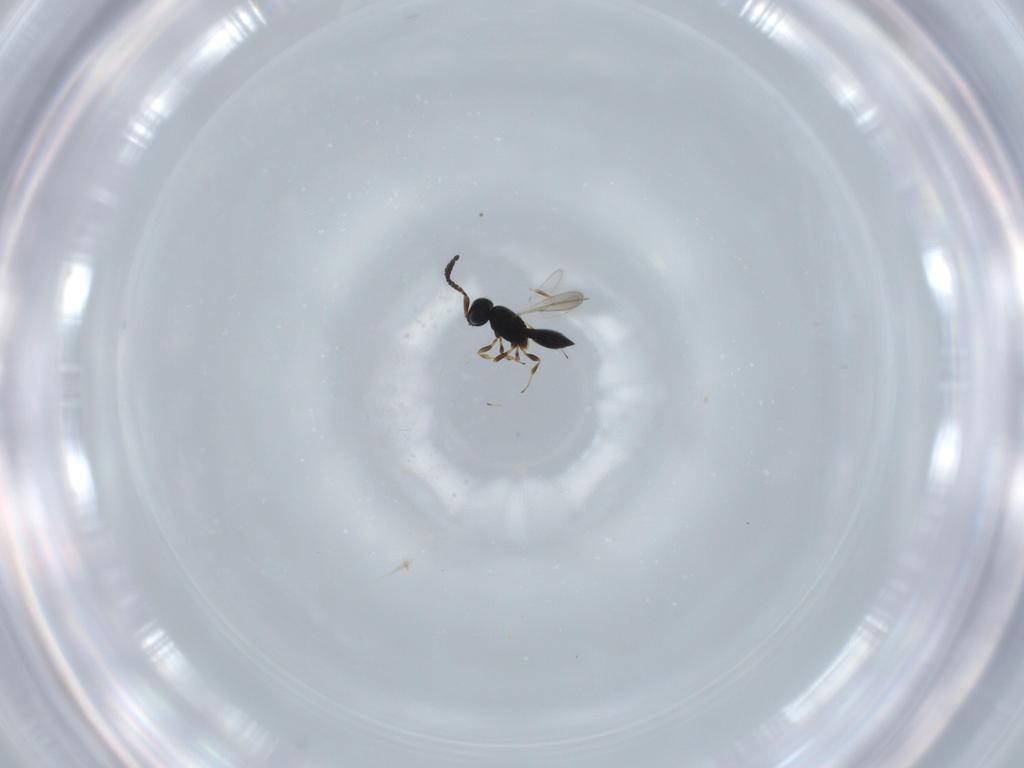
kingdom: Animalia
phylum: Arthropoda
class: Insecta
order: Hymenoptera
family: Scelionidae
